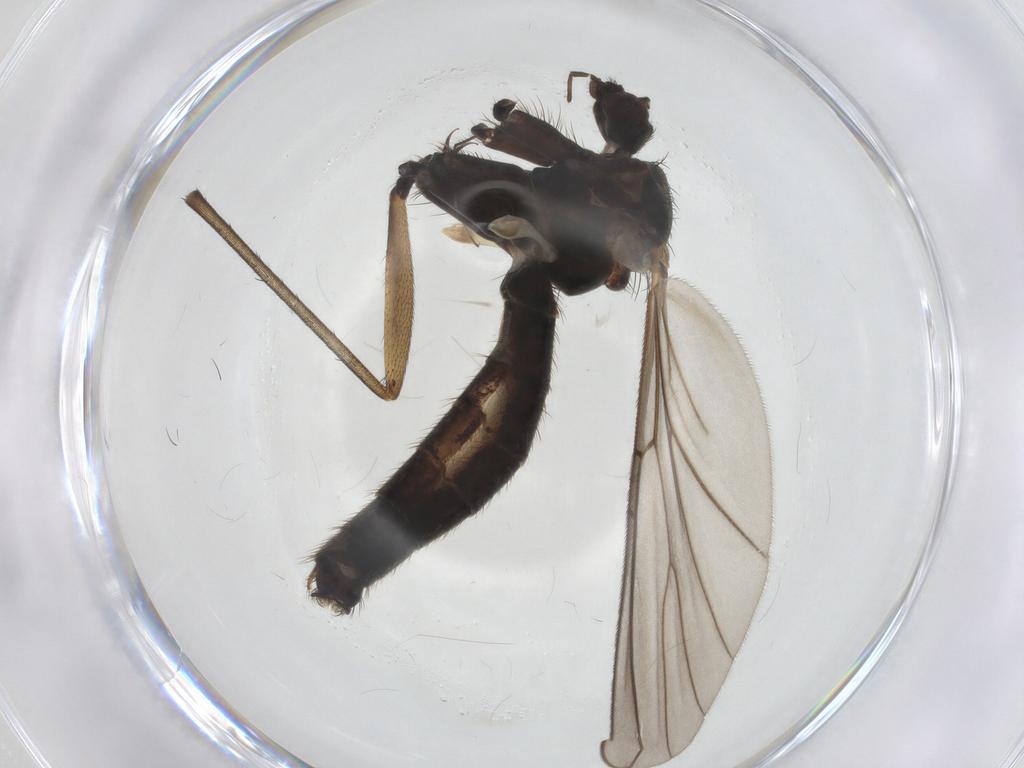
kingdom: Animalia
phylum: Arthropoda
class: Insecta
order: Diptera
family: Mycetophilidae
